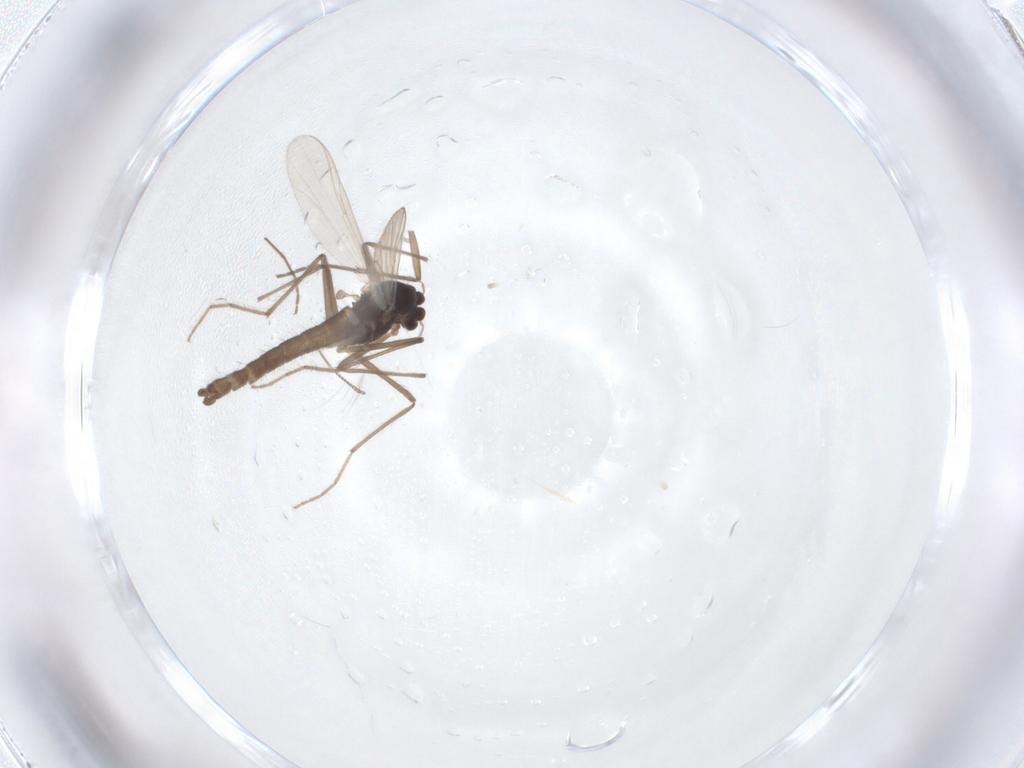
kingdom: Animalia
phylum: Arthropoda
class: Insecta
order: Diptera
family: Chironomidae
